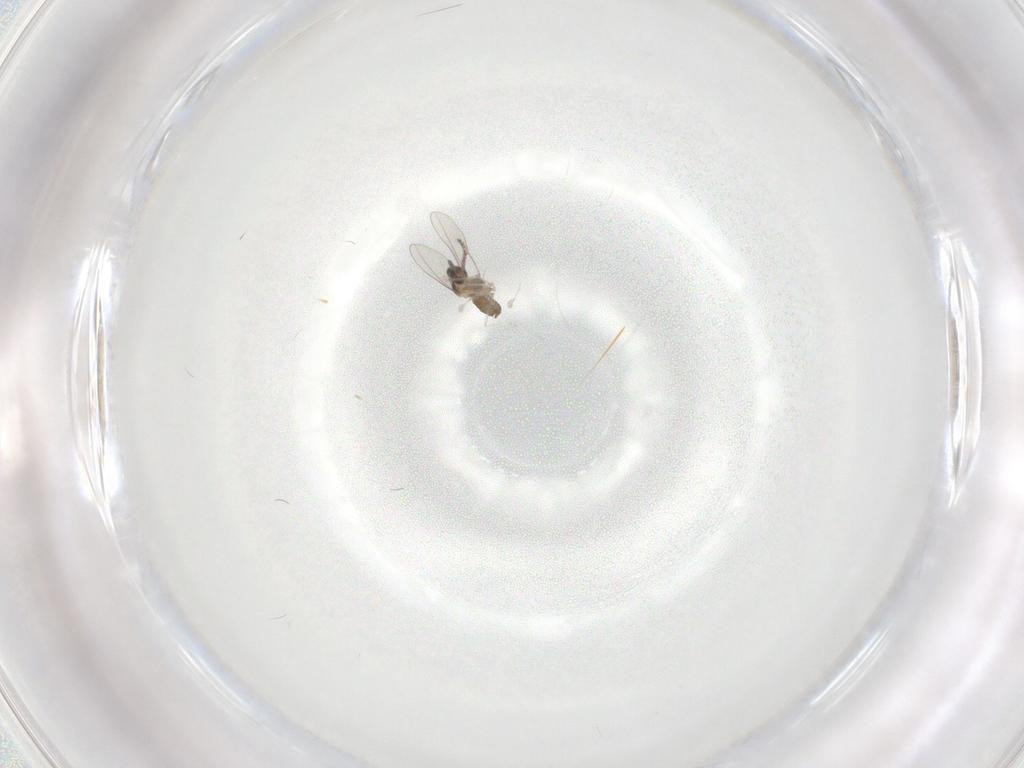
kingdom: Animalia
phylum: Arthropoda
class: Insecta
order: Diptera
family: Cecidomyiidae
